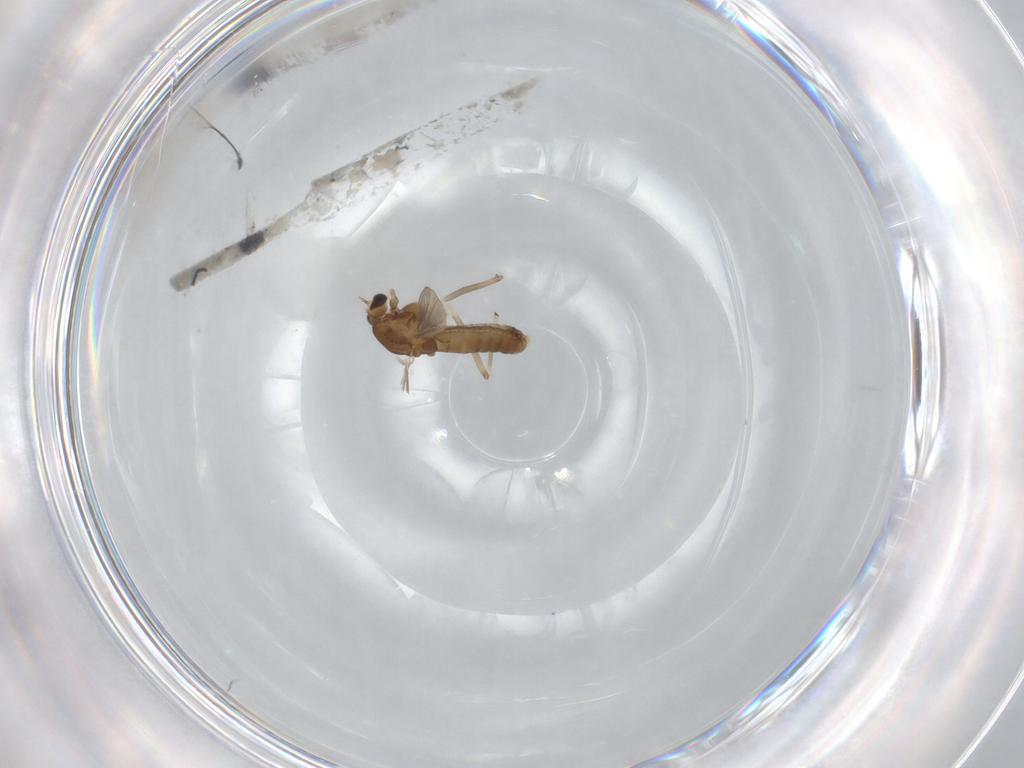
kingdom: Animalia
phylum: Arthropoda
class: Insecta
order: Diptera
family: Chironomidae
